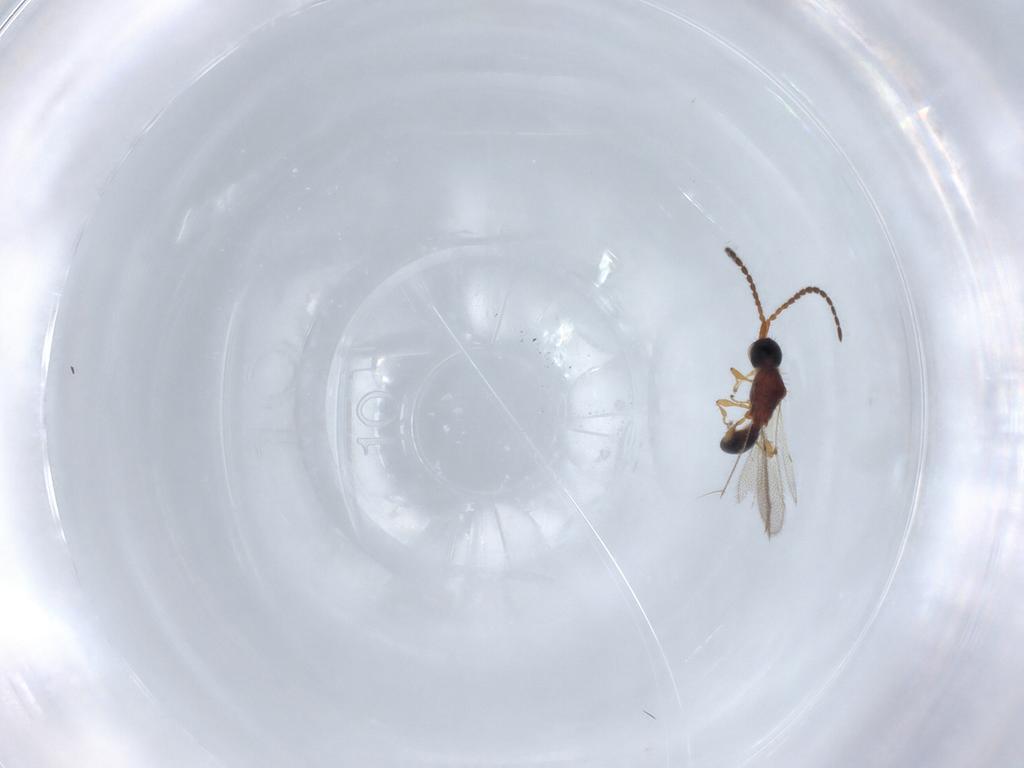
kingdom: Animalia
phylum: Arthropoda
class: Insecta
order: Hymenoptera
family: Diapriidae
